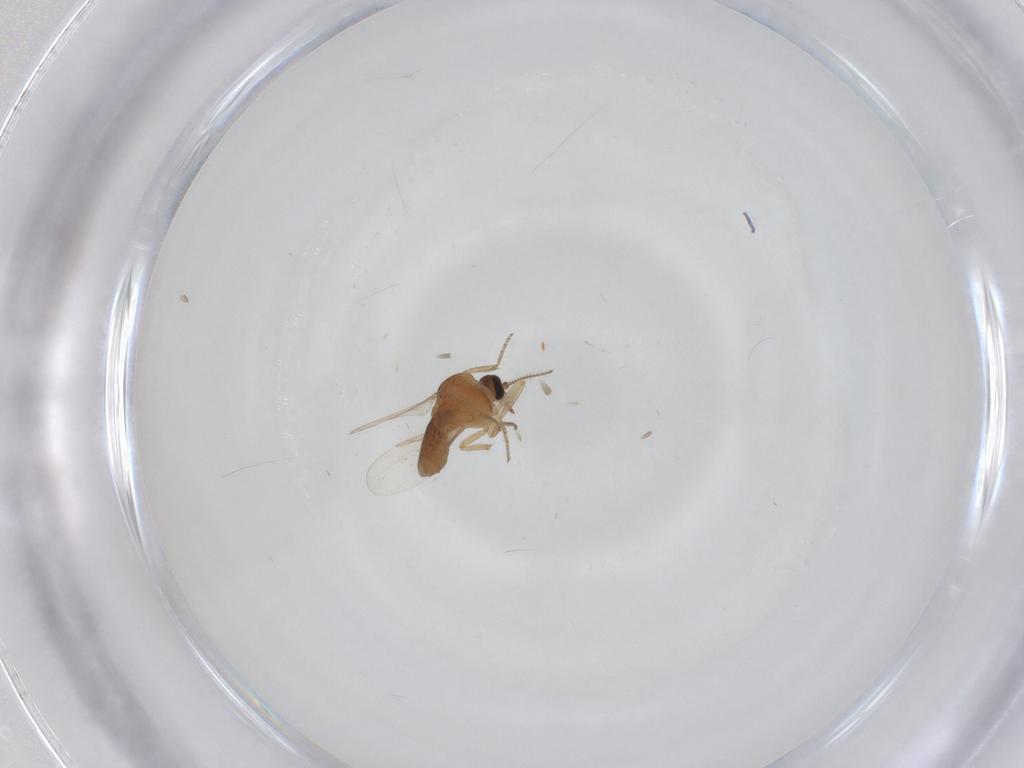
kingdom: Animalia
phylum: Arthropoda
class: Insecta
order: Diptera
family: Ceratopogonidae
